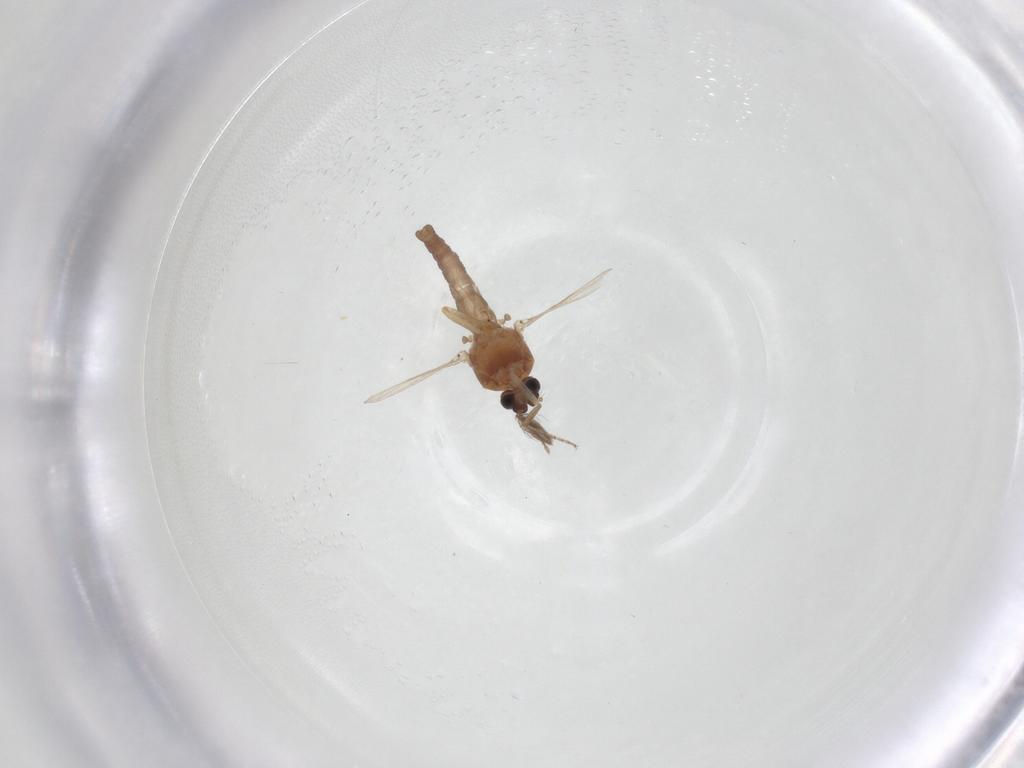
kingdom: Animalia
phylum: Arthropoda
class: Insecta
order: Diptera
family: Ceratopogonidae
